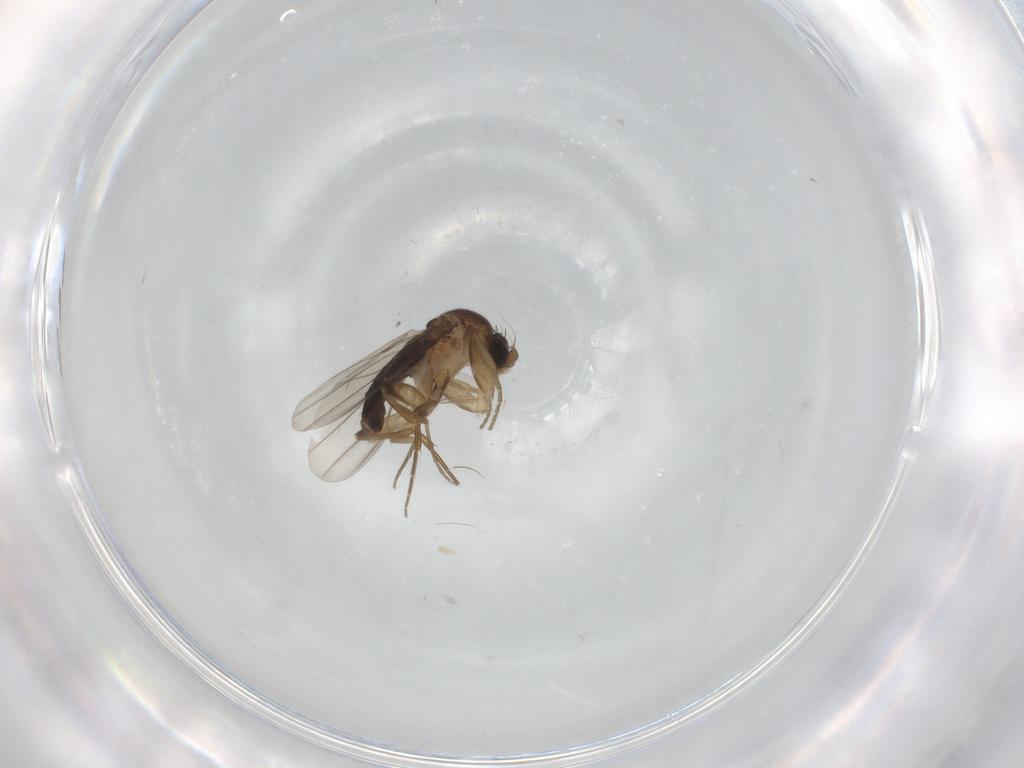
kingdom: Animalia
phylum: Arthropoda
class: Insecta
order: Diptera
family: Phoridae
